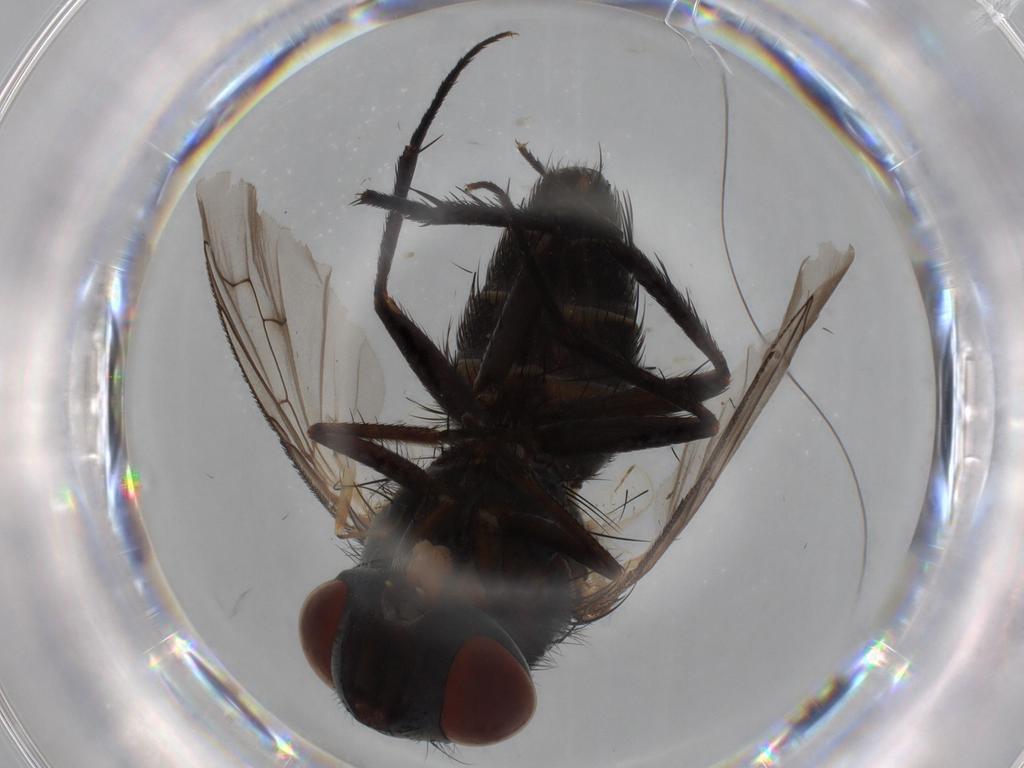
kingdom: Animalia
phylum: Arthropoda
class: Insecta
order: Diptera
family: Sarcophagidae
